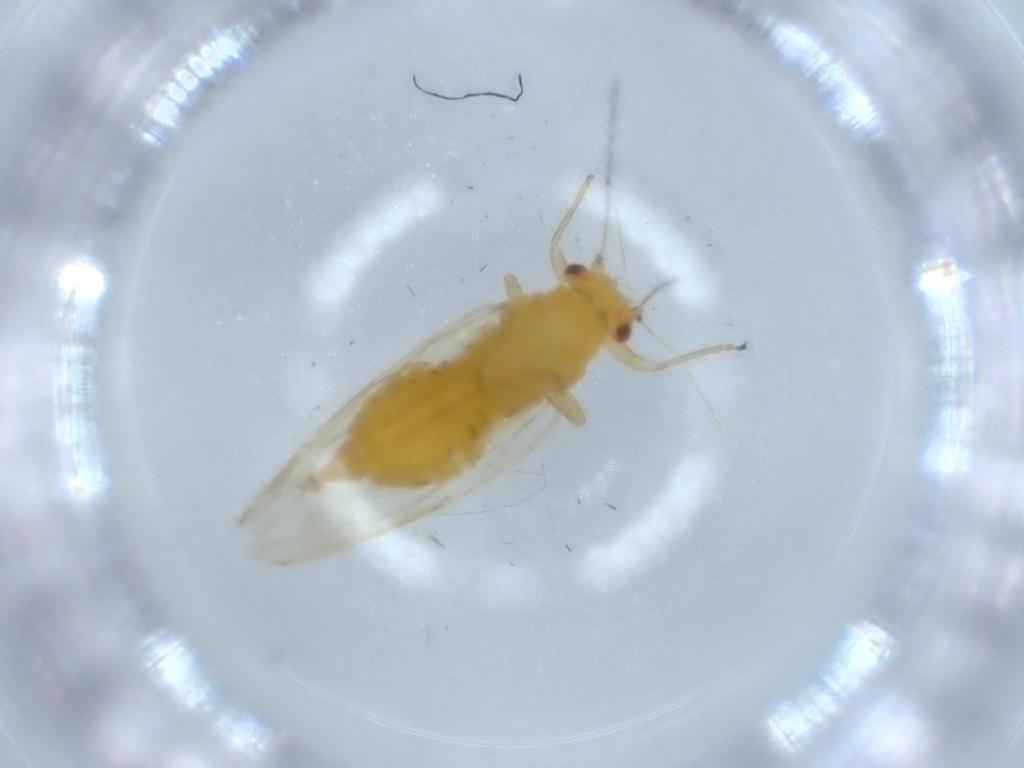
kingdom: Animalia
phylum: Arthropoda
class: Insecta
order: Hemiptera
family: Psyllidae
